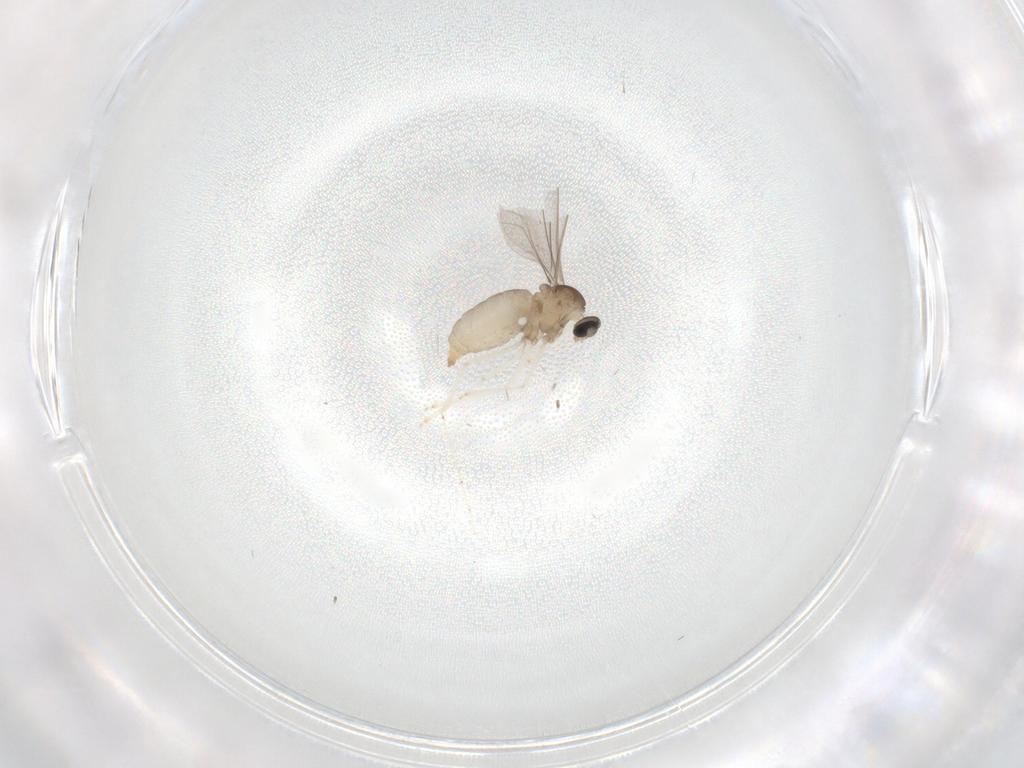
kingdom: Animalia
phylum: Arthropoda
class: Insecta
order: Diptera
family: Cecidomyiidae
